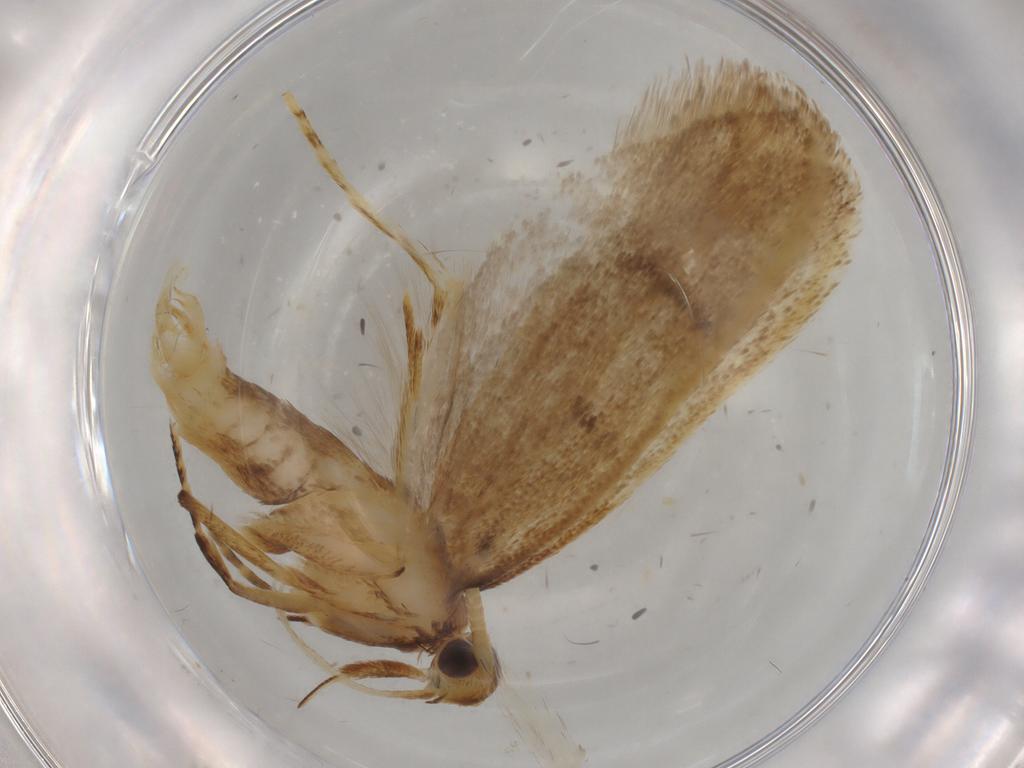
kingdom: Animalia
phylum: Arthropoda
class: Insecta
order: Lepidoptera
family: Lecithoceridae
